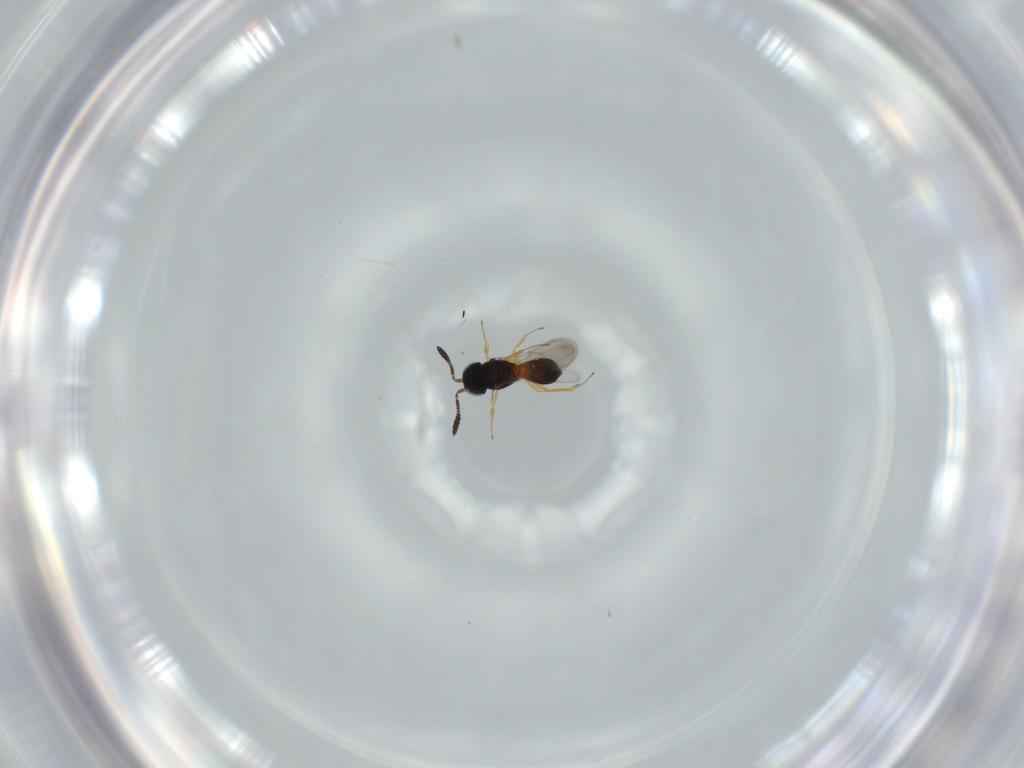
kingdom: Animalia
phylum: Arthropoda
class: Insecta
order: Hymenoptera
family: Scelionidae
